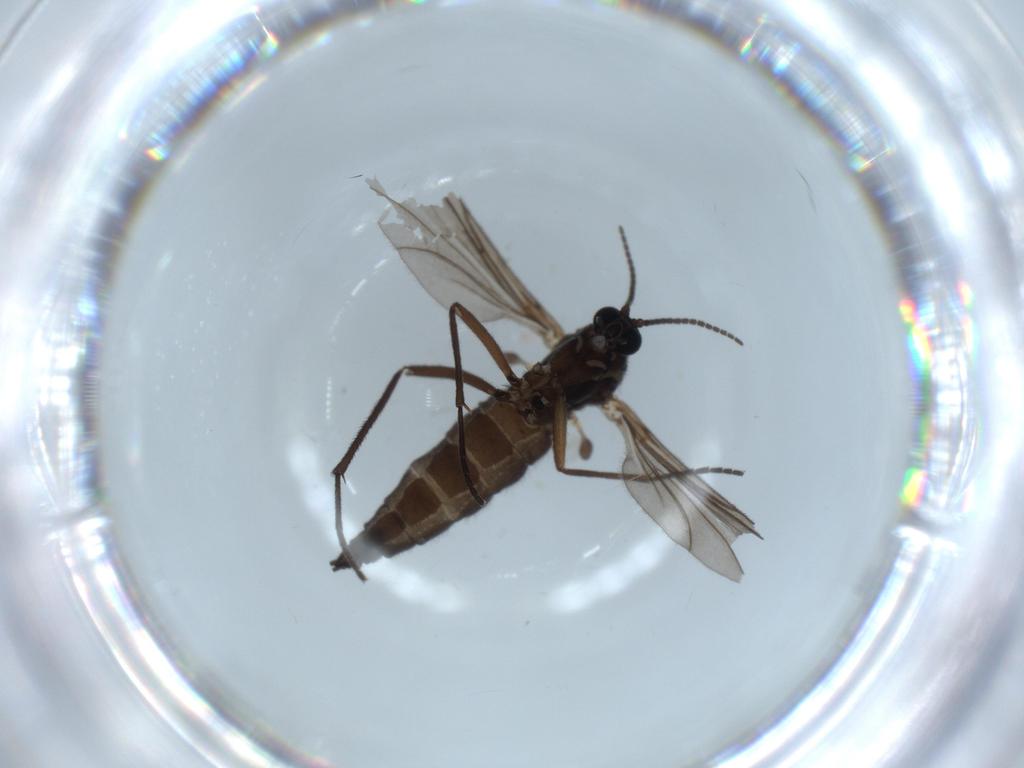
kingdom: Animalia
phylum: Arthropoda
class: Insecta
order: Diptera
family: Sciaridae
